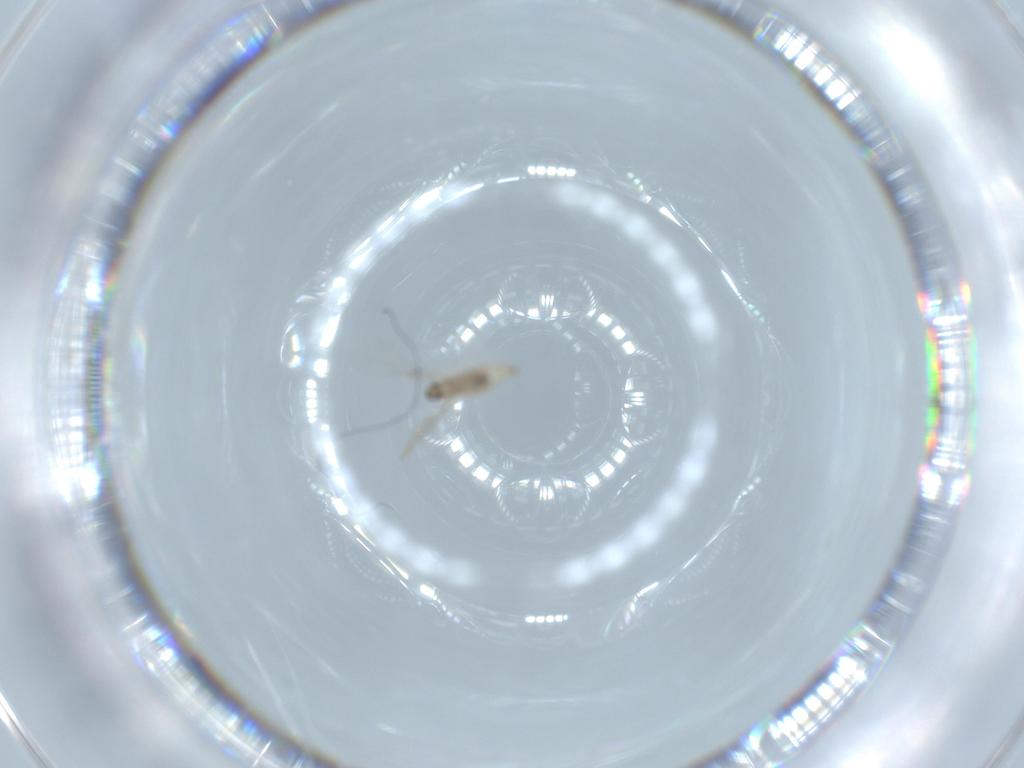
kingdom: Animalia
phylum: Arthropoda
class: Insecta
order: Diptera
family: Cecidomyiidae
